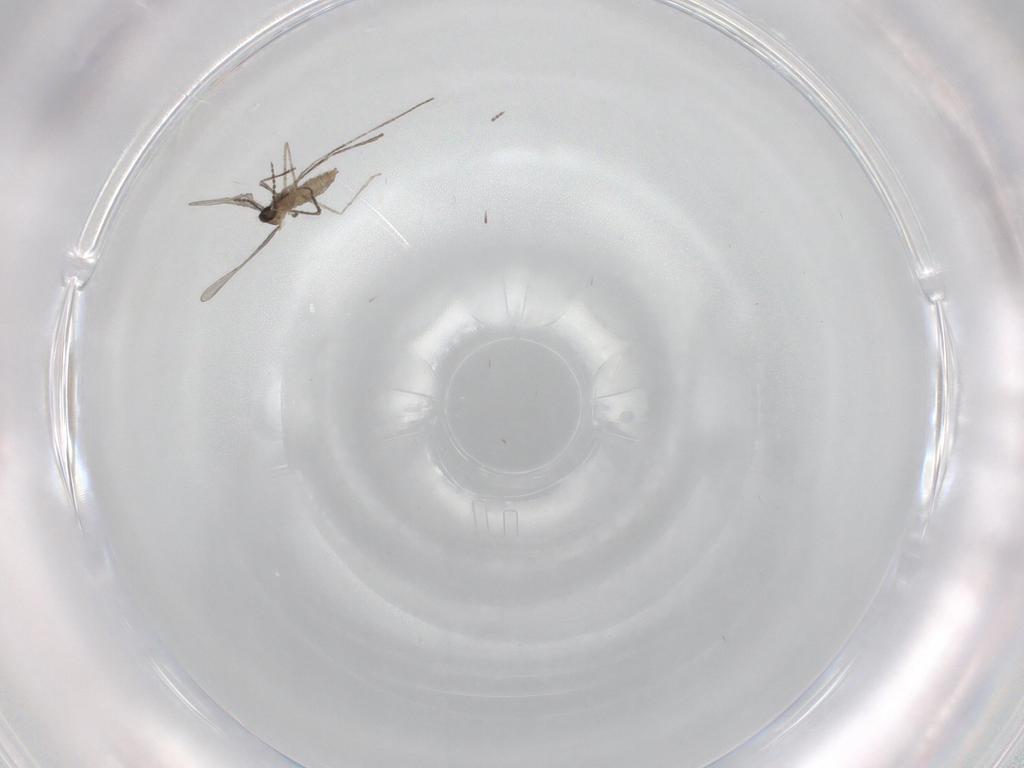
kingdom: Animalia
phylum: Arthropoda
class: Insecta
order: Diptera
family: Cecidomyiidae
